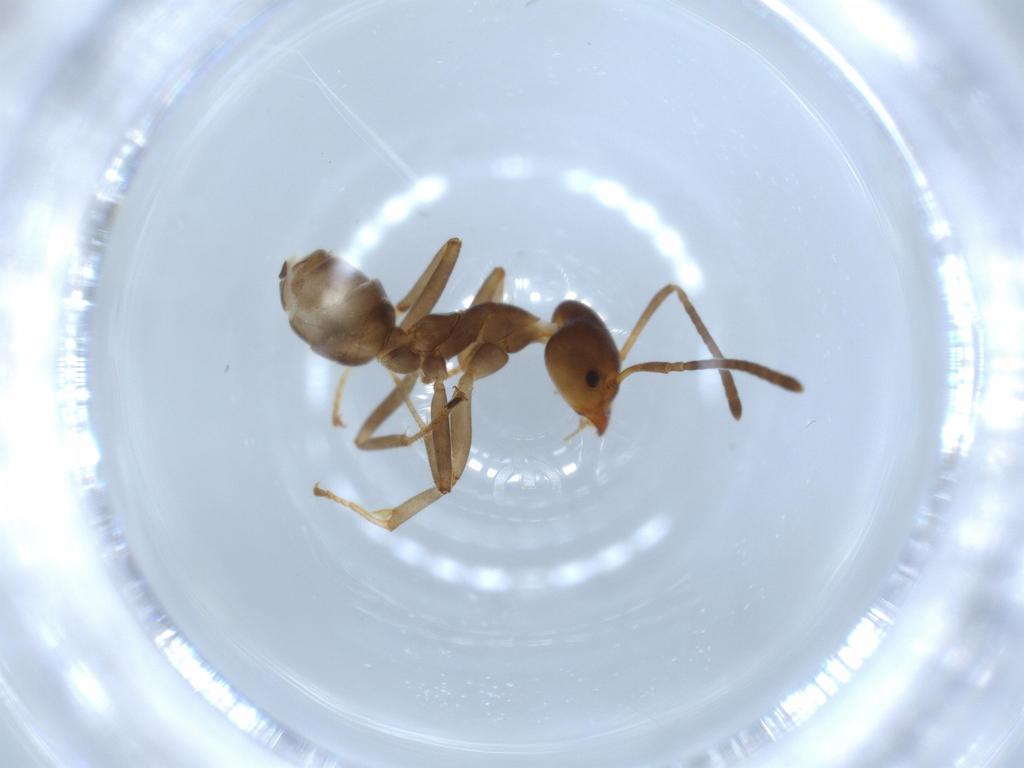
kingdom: Animalia
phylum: Arthropoda
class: Insecta
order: Hymenoptera
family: Formicidae
